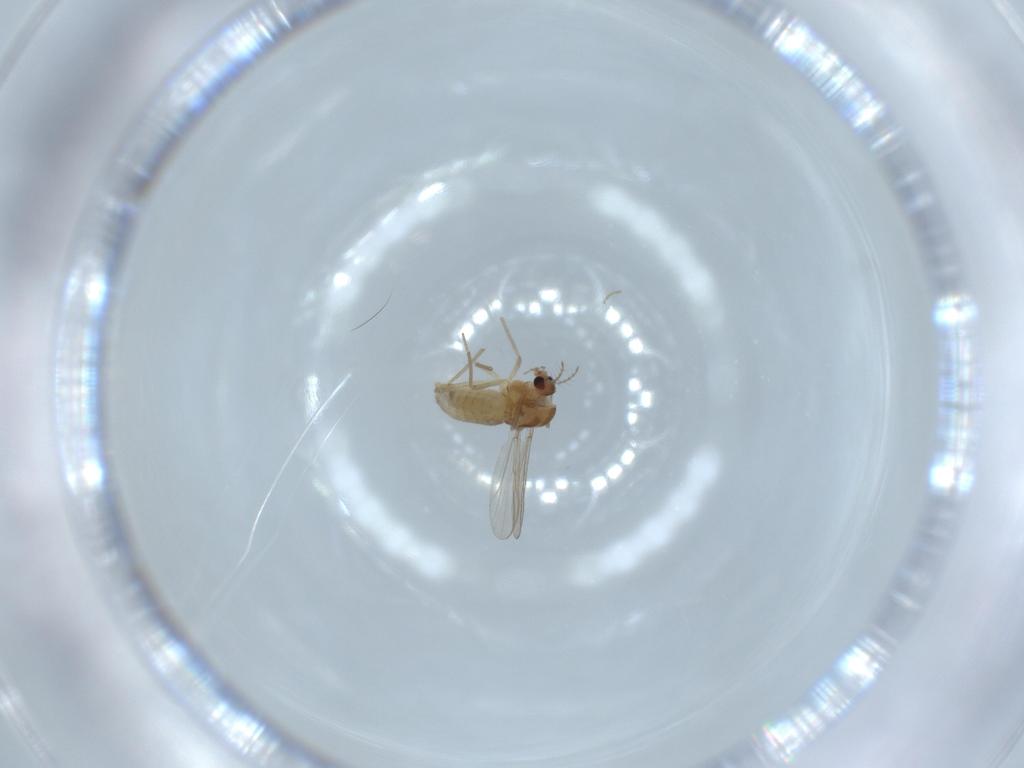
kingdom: Animalia
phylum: Arthropoda
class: Insecta
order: Diptera
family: Chironomidae
